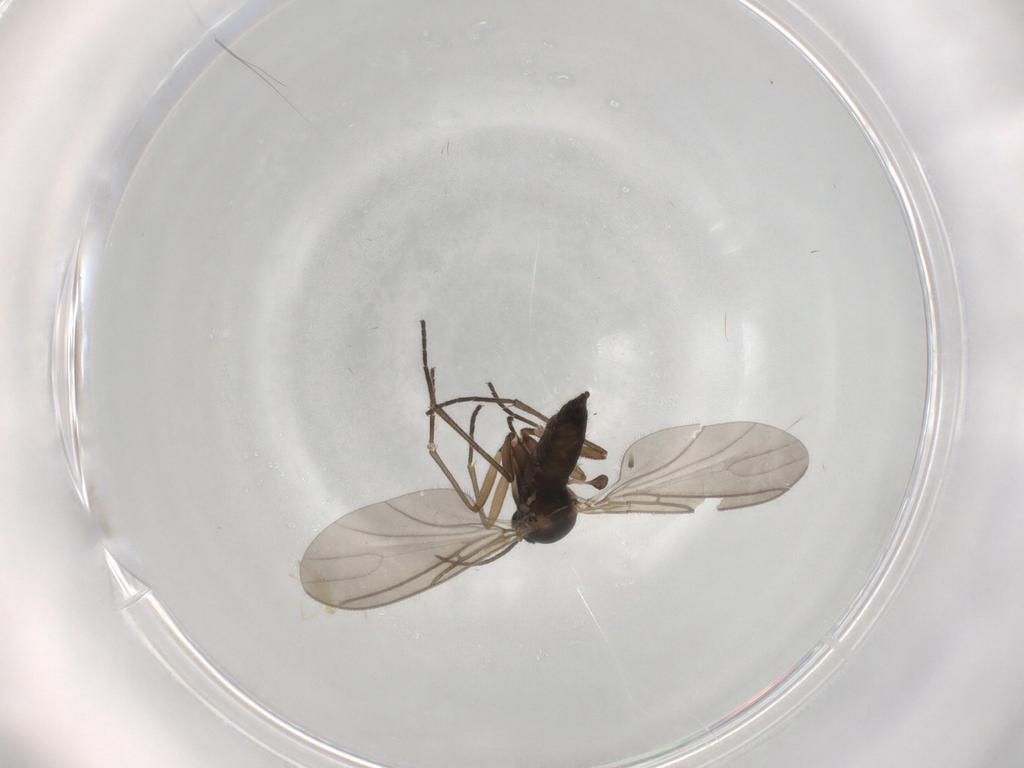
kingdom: Animalia
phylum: Arthropoda
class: Insecta
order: Diptera
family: Sciaridae
